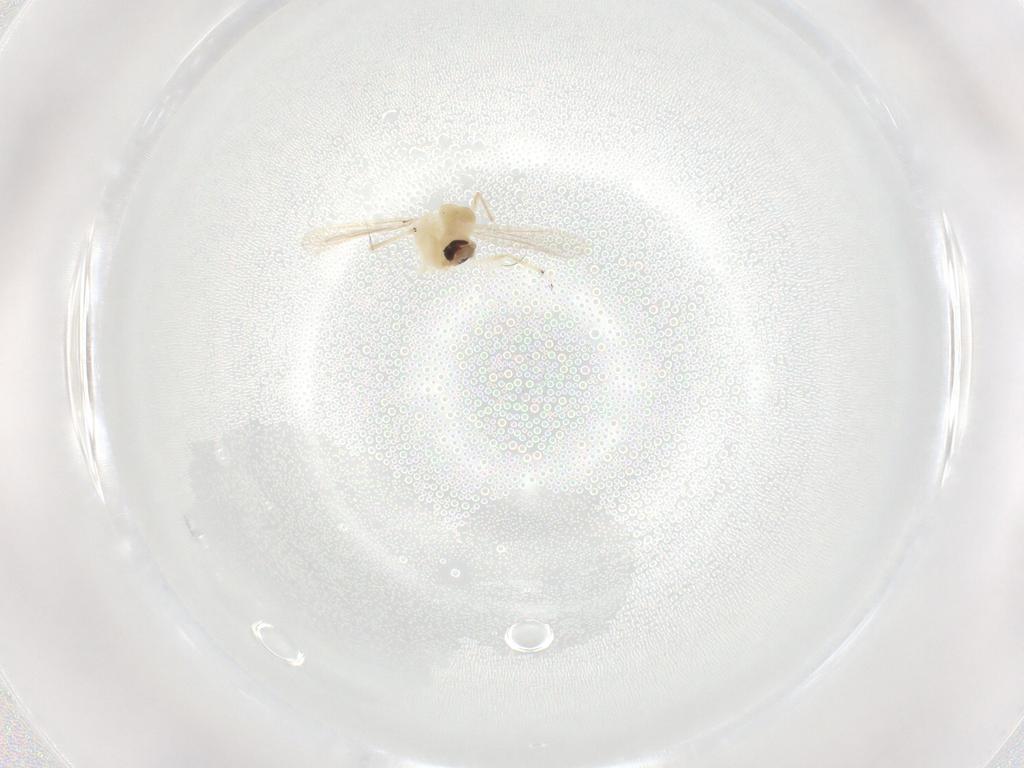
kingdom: Animalia
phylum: Arthropoda
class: Insecta
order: Diptera
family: Chironomidae
